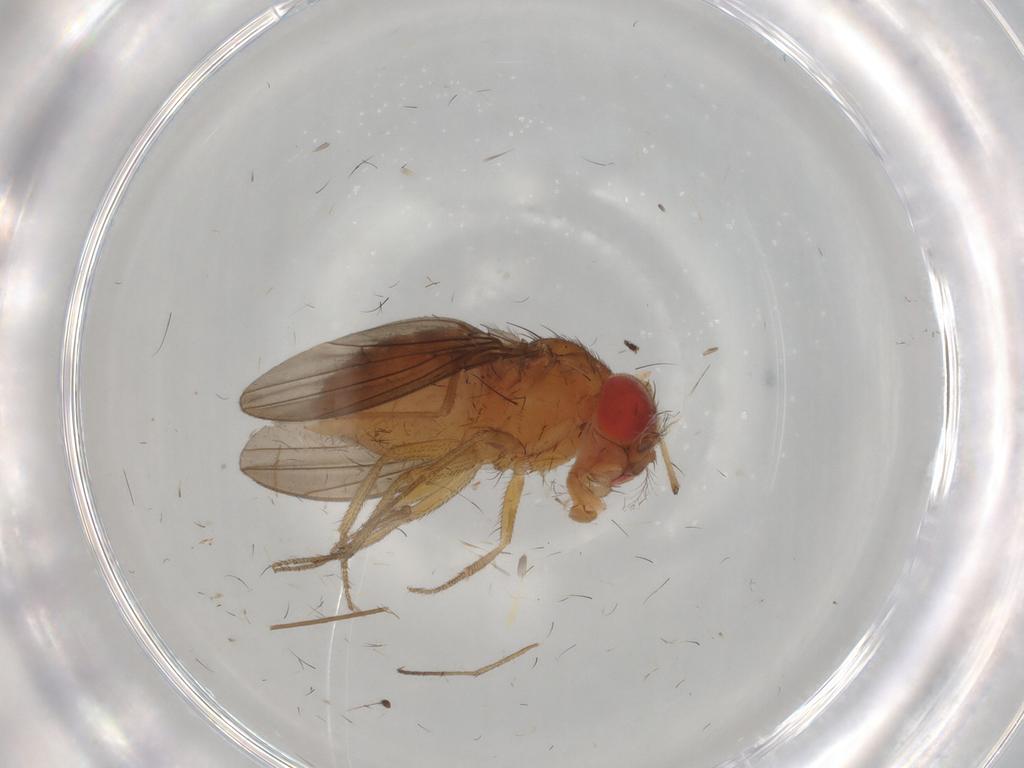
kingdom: Animalia
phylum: Arthropoda
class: Insecta
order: Diptera
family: Drosophilidae
